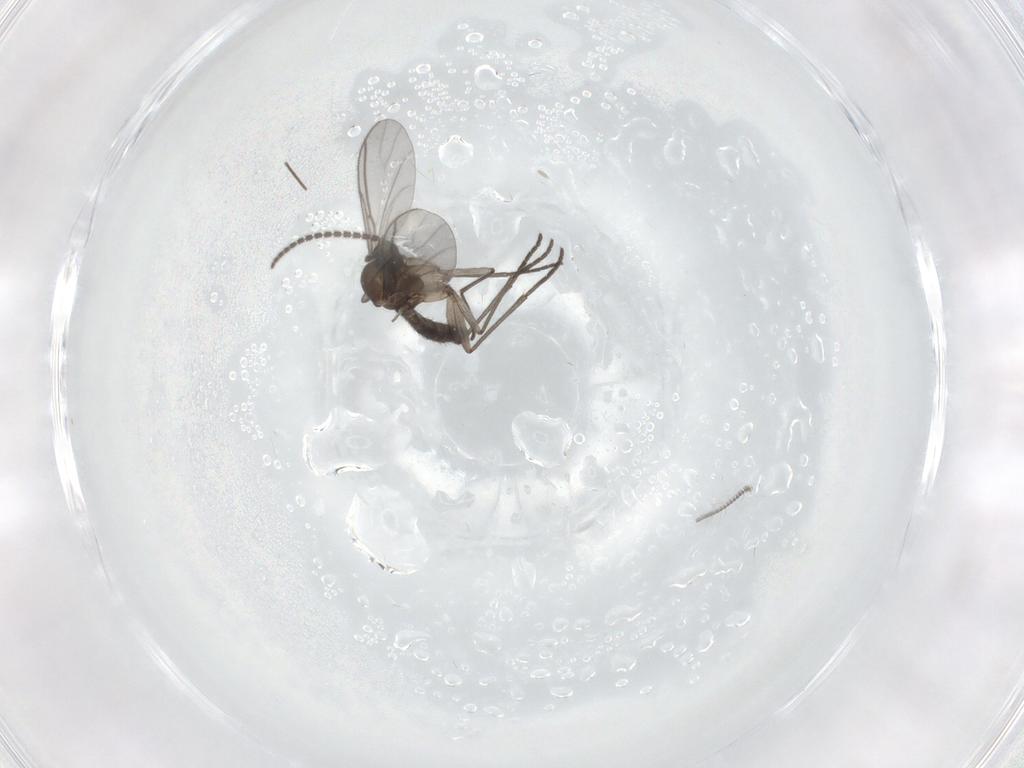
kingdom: Animalia
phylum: Arthropoda
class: Insecta
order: Diptera
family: Chironomidae
